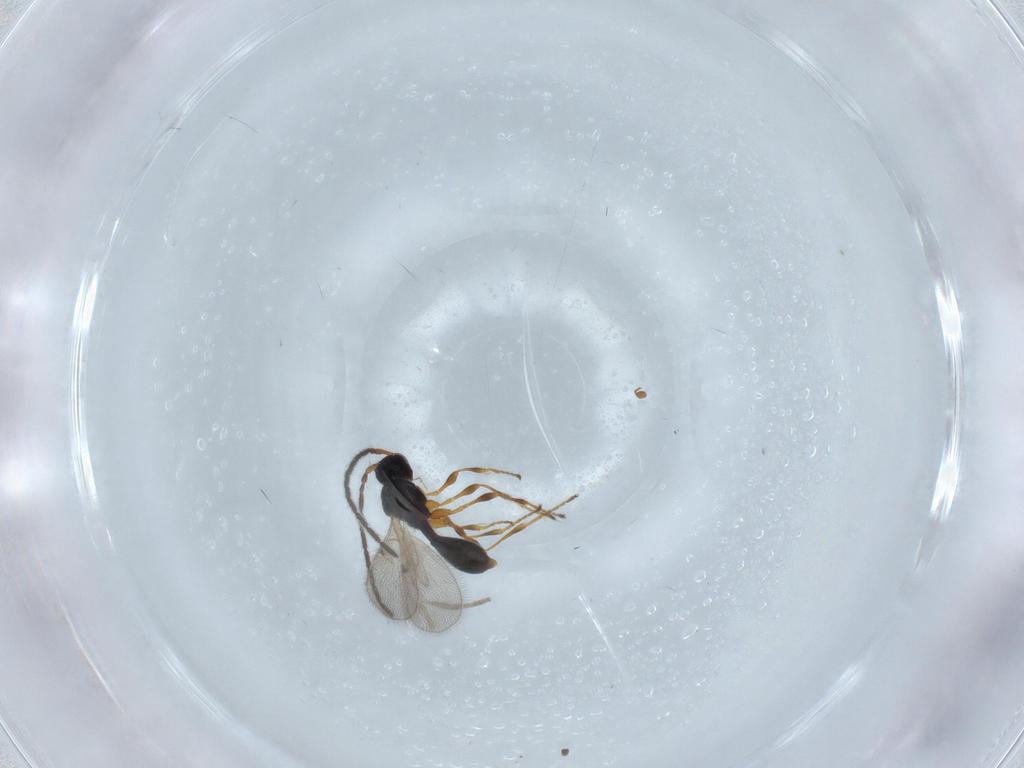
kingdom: Animalia
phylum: Arthropoda
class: Insecta
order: Hymenoptera
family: Diapriidae
